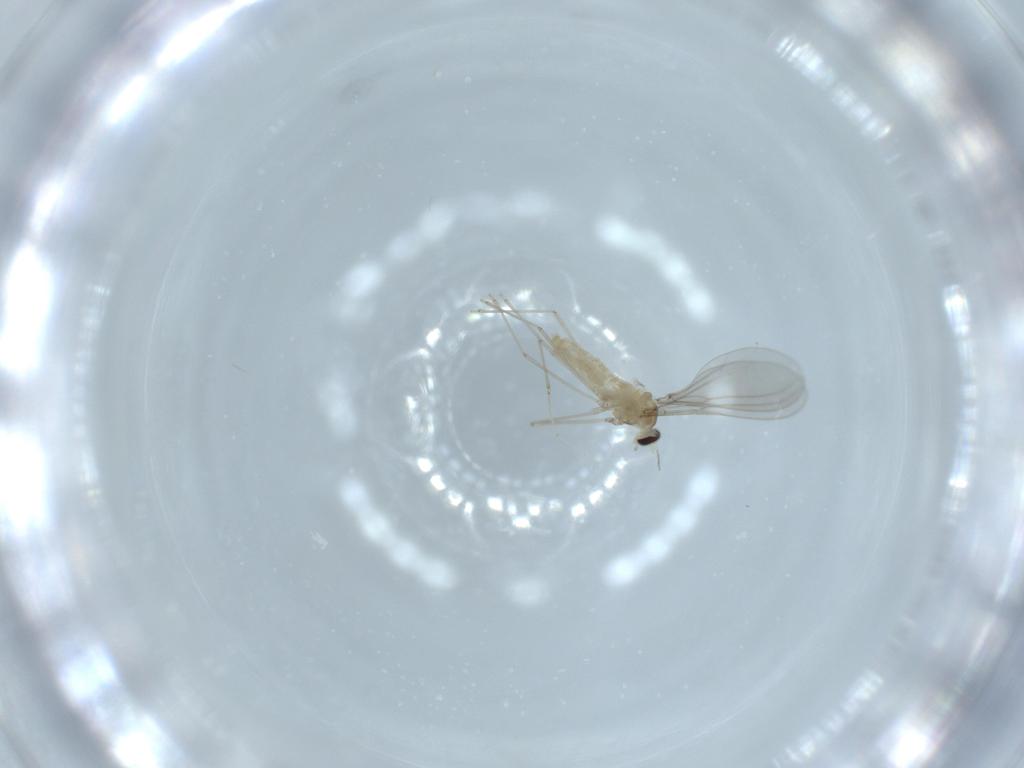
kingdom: Animalia
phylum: Arthropoda
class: Insecta
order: Diptera
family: Cecidomyiidae
